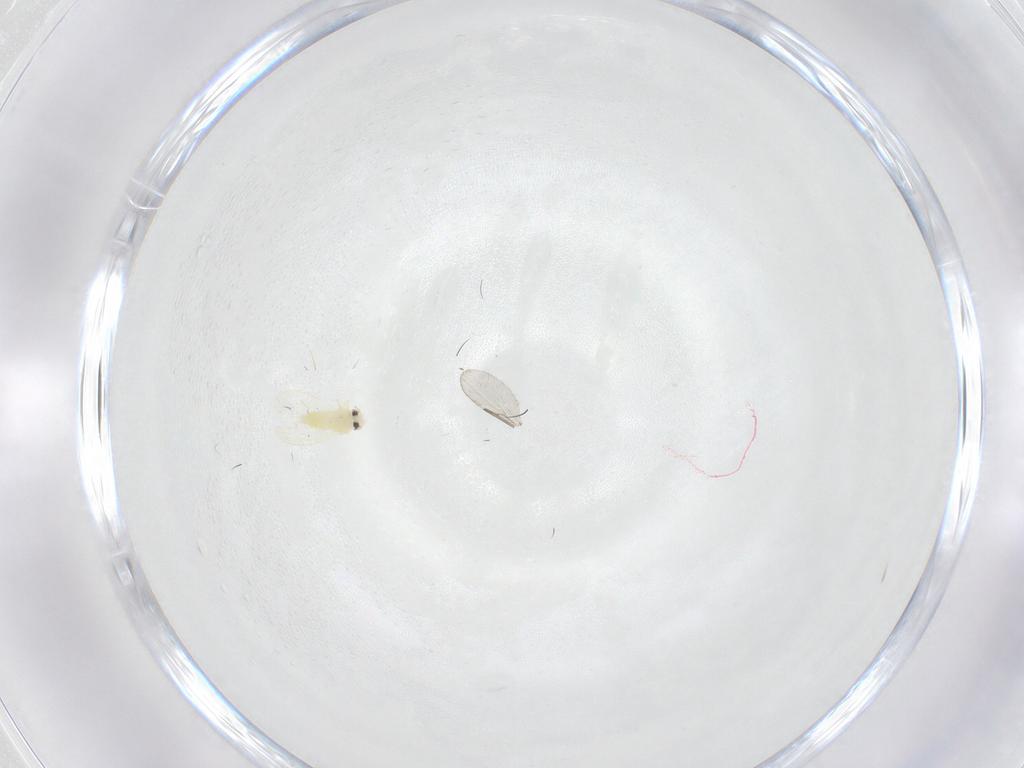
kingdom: Animalia
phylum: Arthropoda
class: Insecta
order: Hemiptera
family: Aleyrodidae
